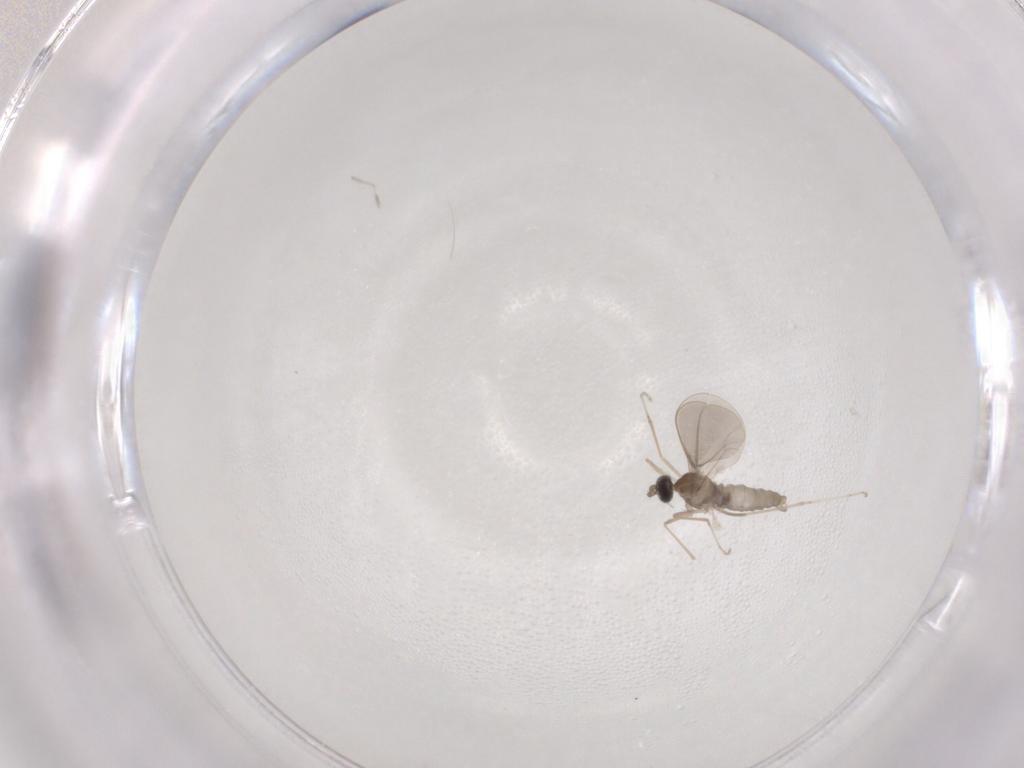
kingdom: Animalia
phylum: Arthropoda
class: Insecta
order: Diptera
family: Cecidomyiidae
